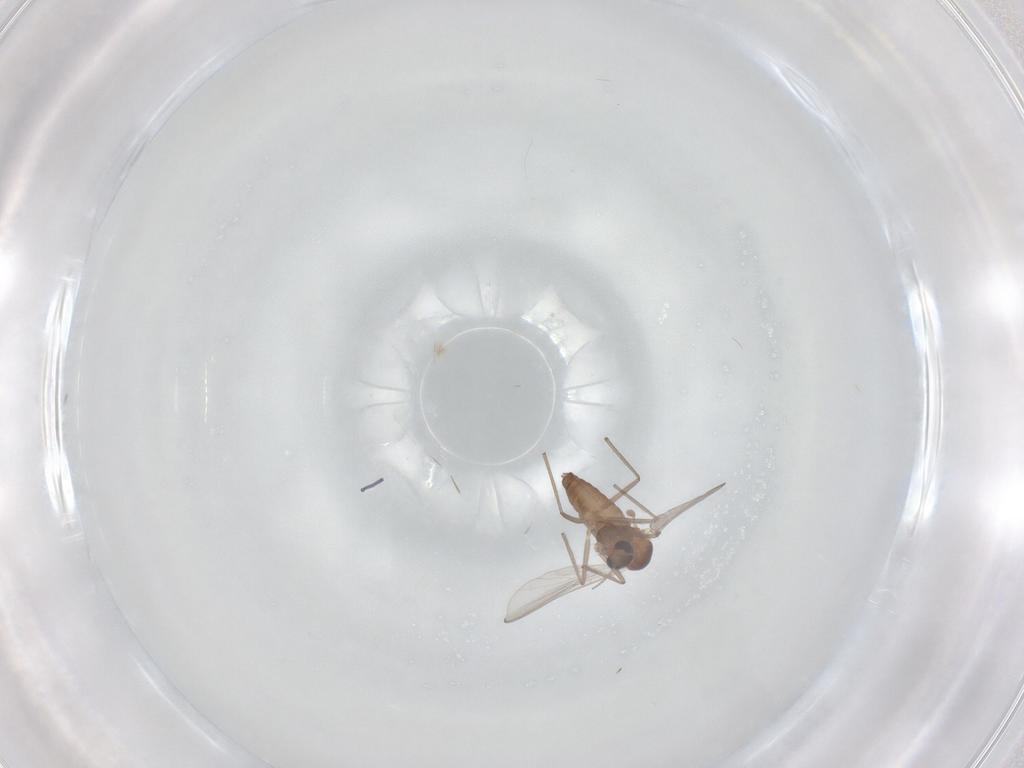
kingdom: Animalia
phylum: Arthropoda
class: Insecta
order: Diptera
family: Chironomidae
